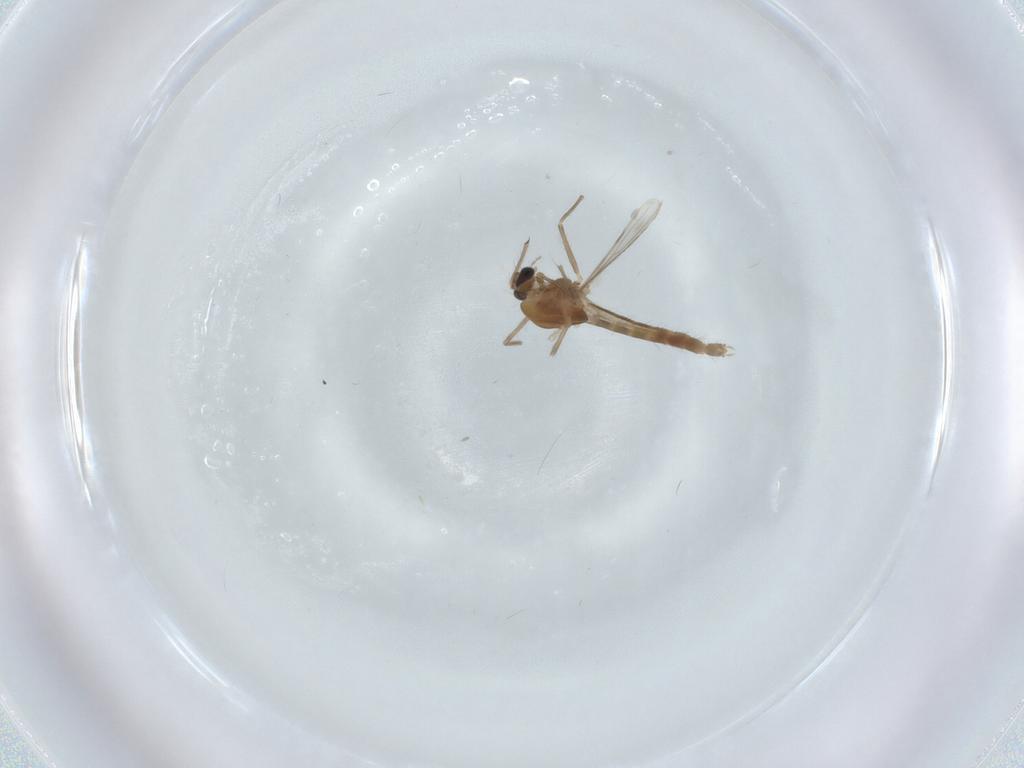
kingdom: Animalia
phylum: Arthropoda
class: Insecta
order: Diptera
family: Chironomidae
